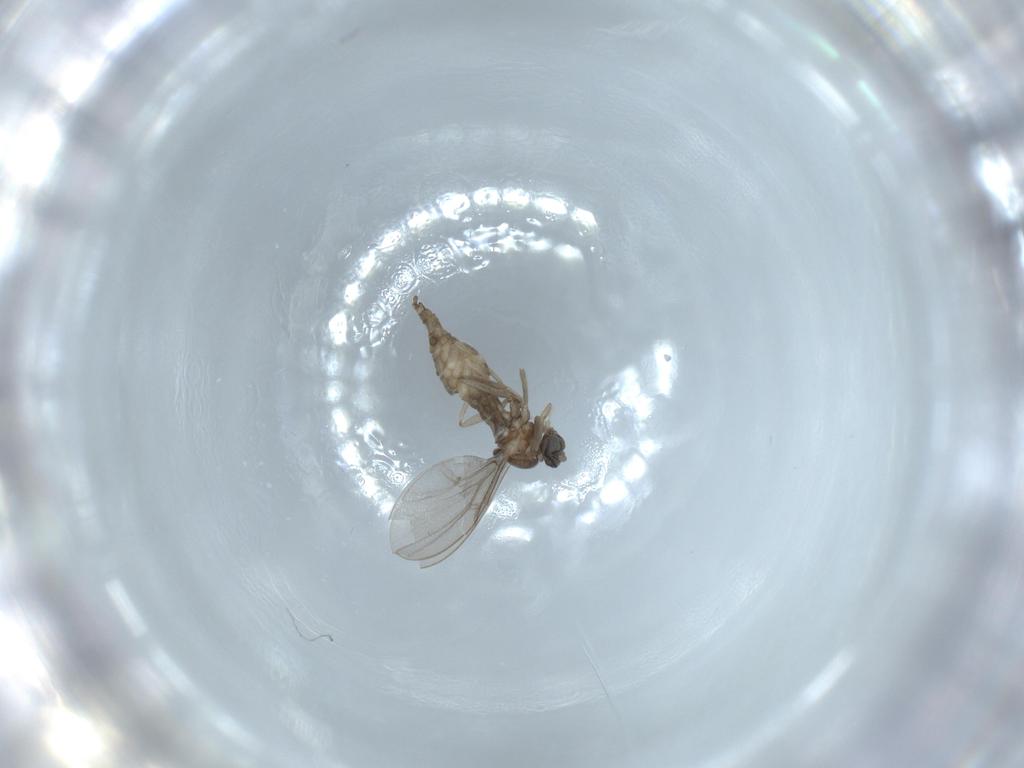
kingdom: Animalia
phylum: Arthropoda
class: Insecta
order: Diptera
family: Cecidomyiidae
